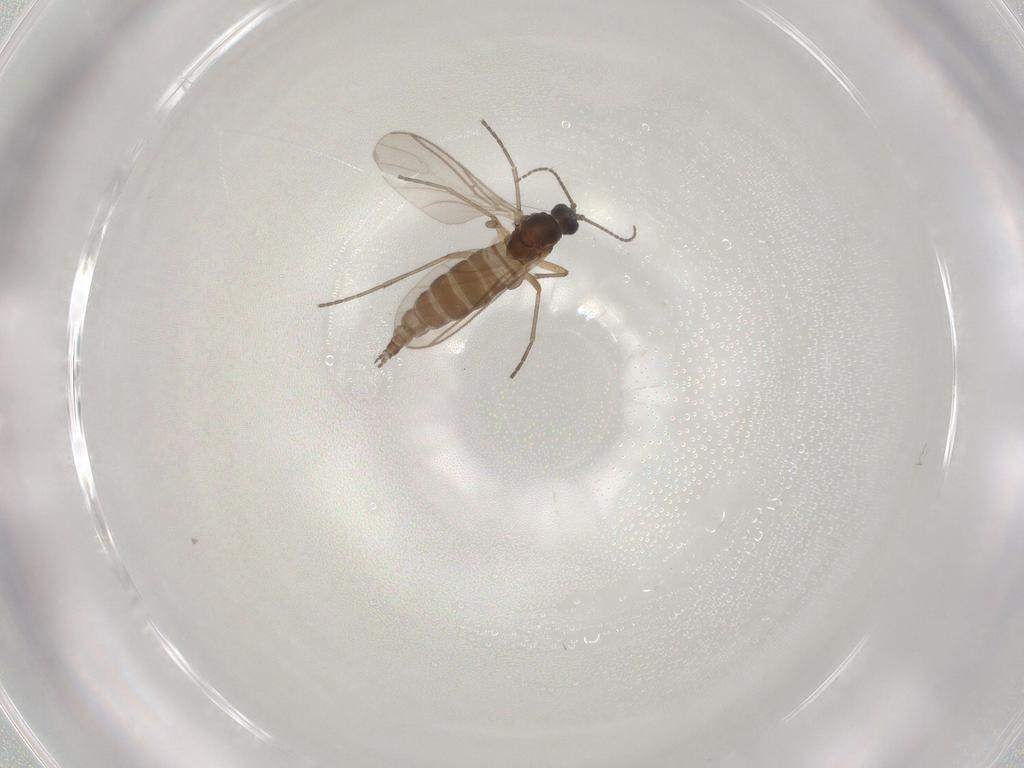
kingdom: Animalia
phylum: Arthropoda
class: Insecta
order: Diptera
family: Sciaridae
